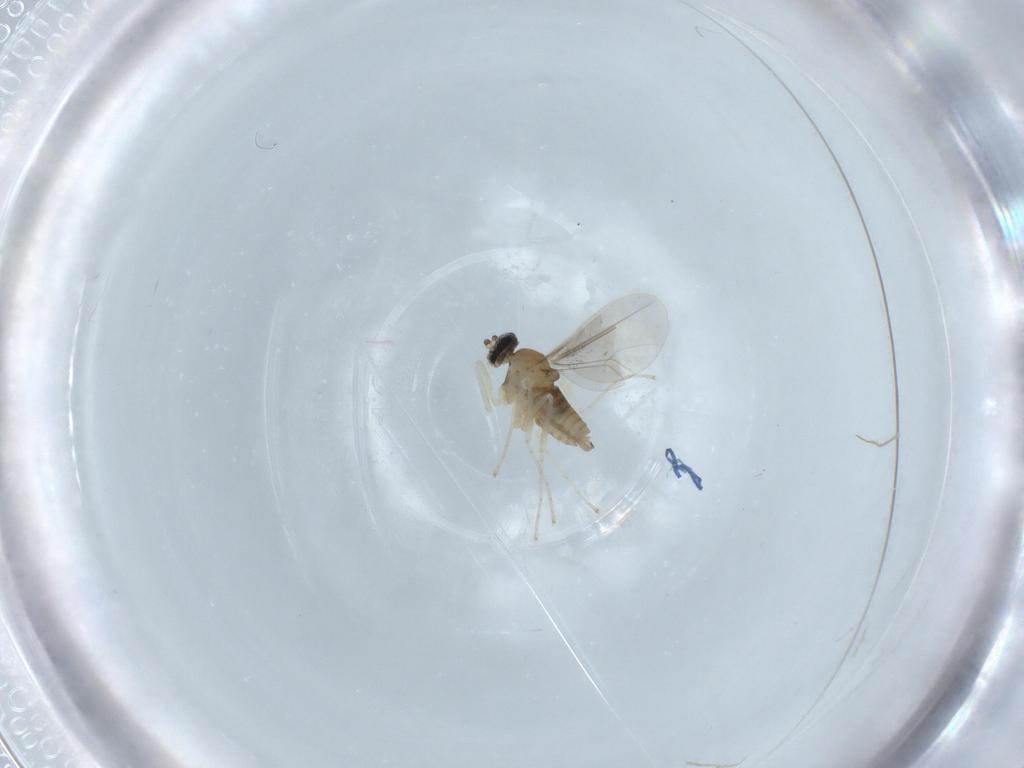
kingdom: Animalia
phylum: Arthropoda
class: Insecta
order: Diptera
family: Cecidomyiidae
